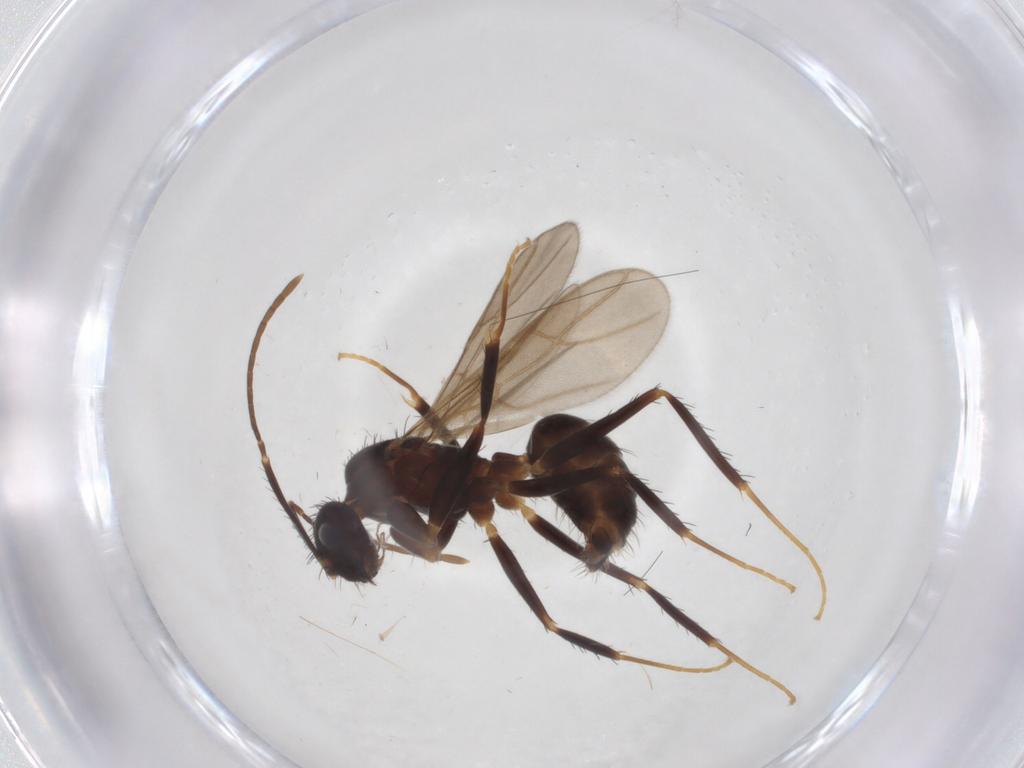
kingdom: Animalia
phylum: Arthropoda
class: Insecta
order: Hymenoptera
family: Formicidae
